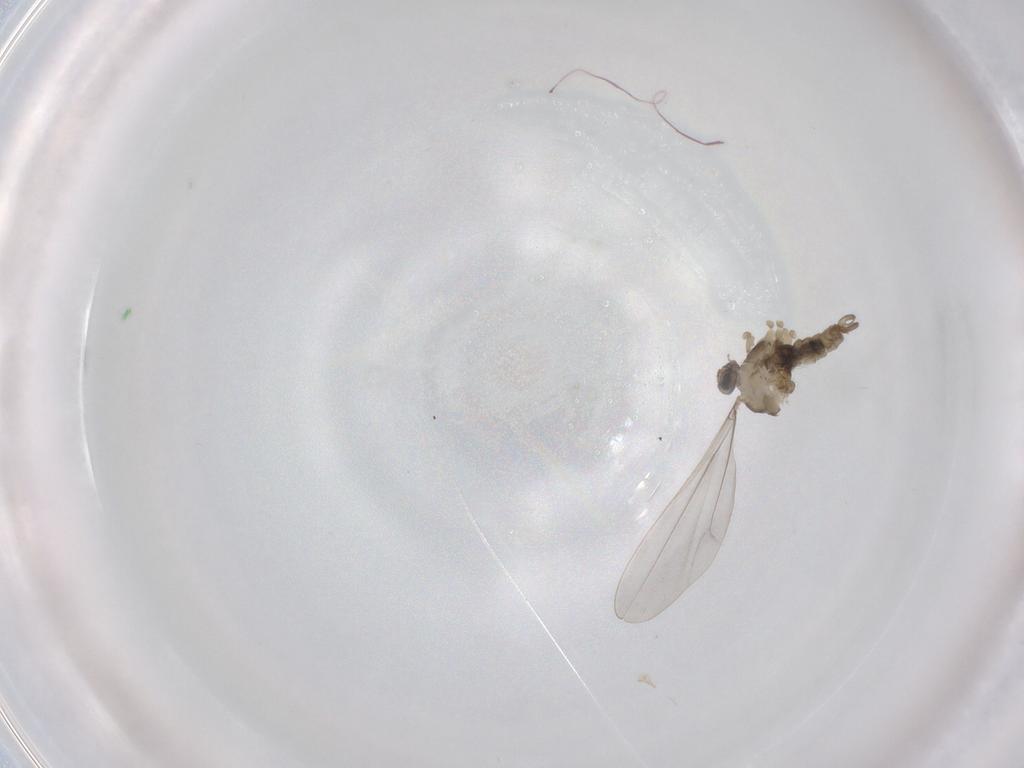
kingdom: Animalia
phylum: Arthropoda
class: Insecta
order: Diptera
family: Cecidomyiidae
